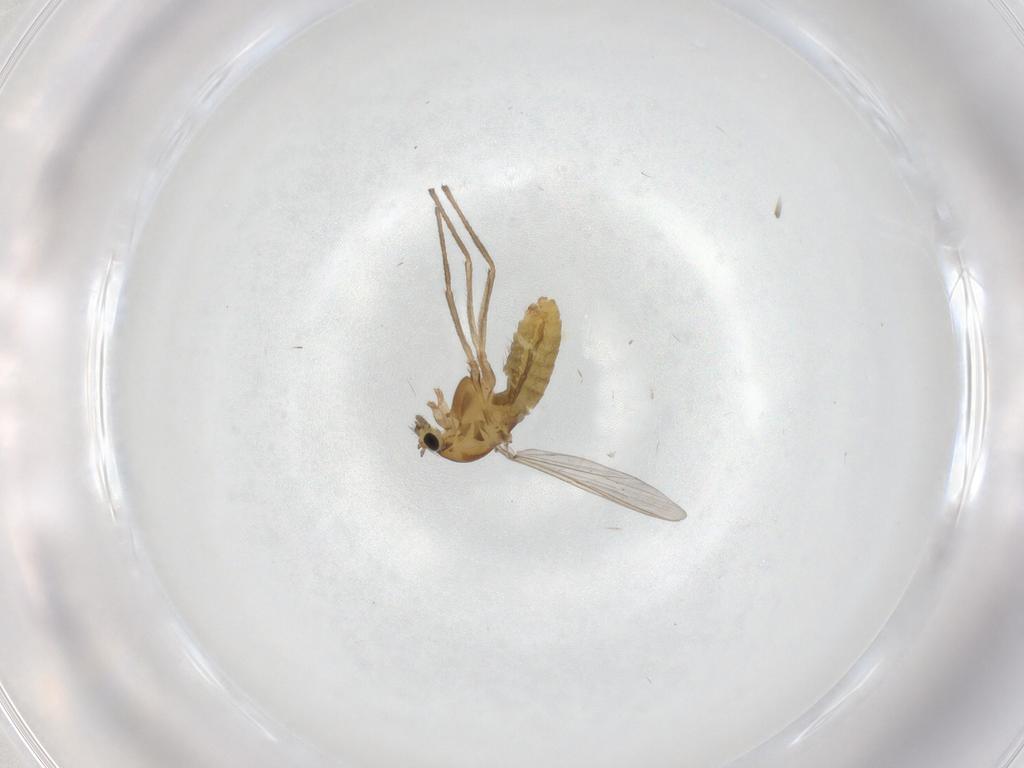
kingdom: Animalia
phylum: Arthropoda
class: Insecta
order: Diptera
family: Chironomidae
